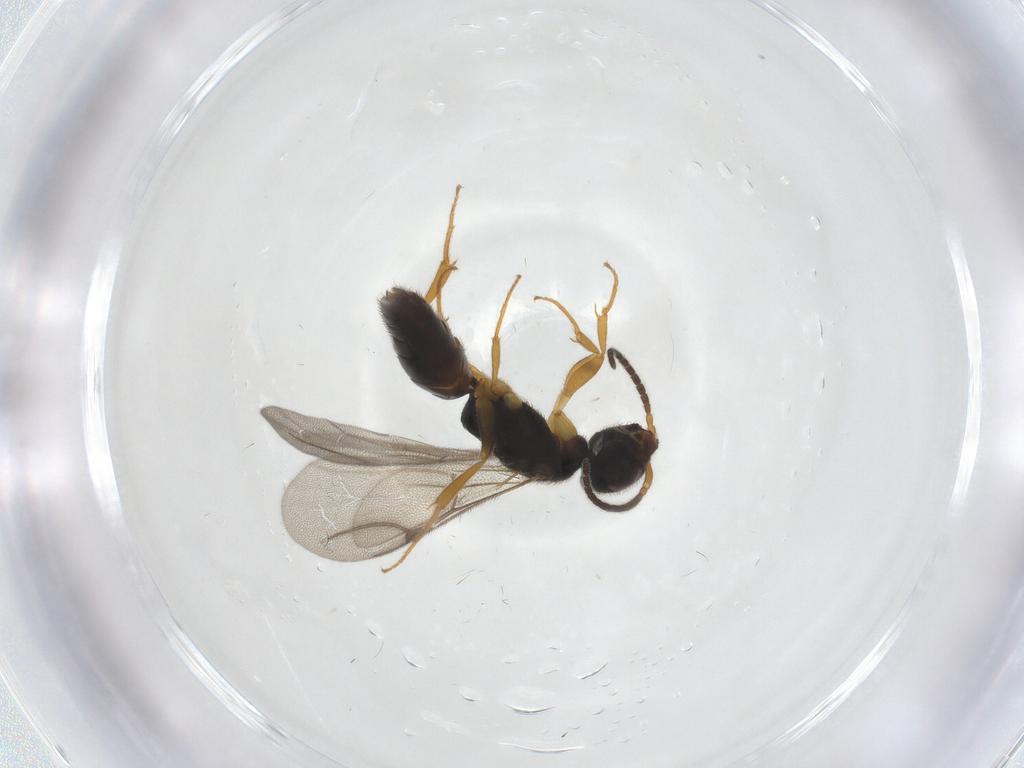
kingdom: Animalia
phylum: Arthropoda
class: Insecta
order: Hymenoptera
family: Bethylidae
